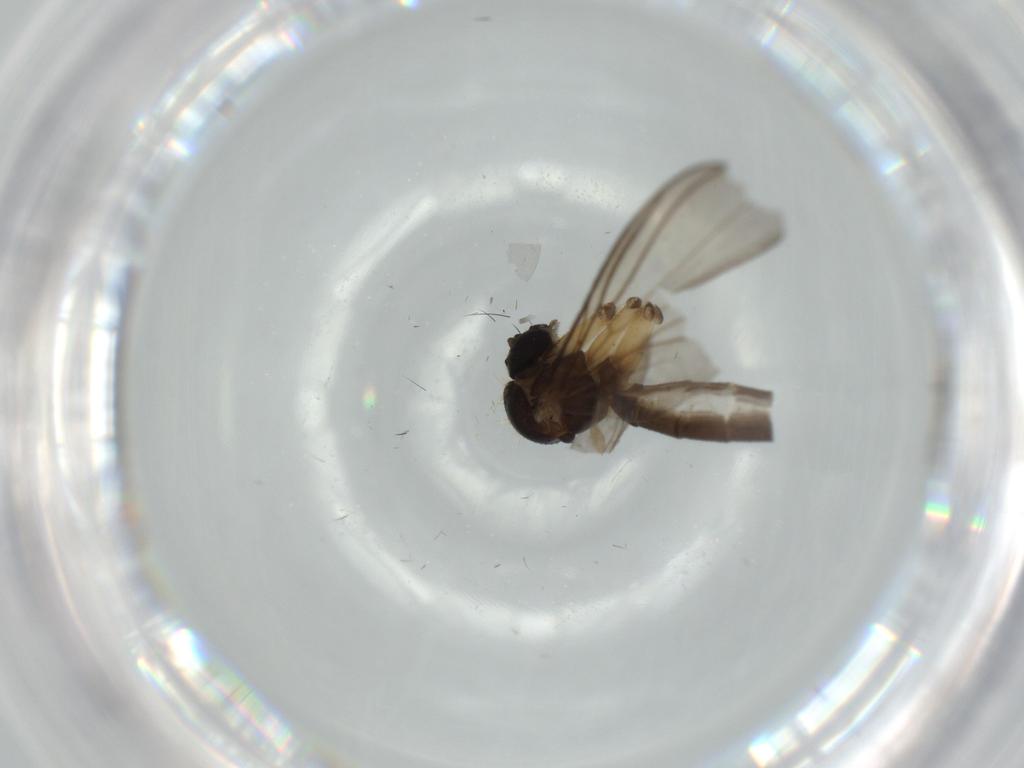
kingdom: Animalia
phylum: Arthropoda
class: Insecta
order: Diptera
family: Mycetophilidae
